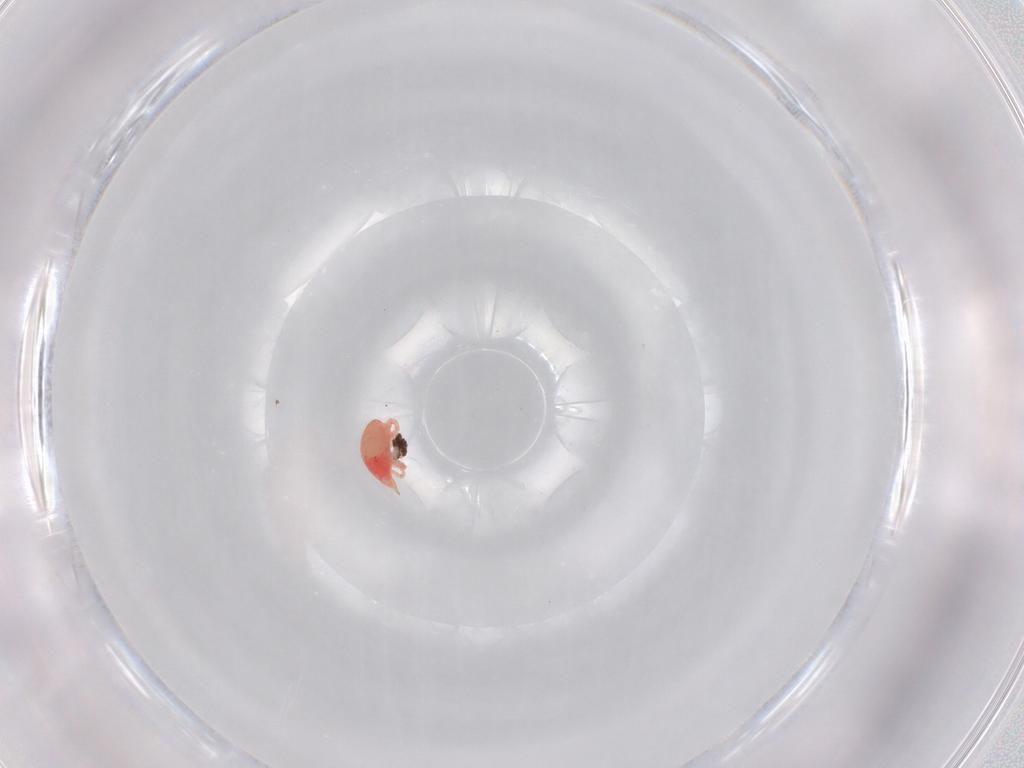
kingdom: Animalia
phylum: Arthropoda
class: Arachnida
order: Trombidiformes
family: Bdellidae
